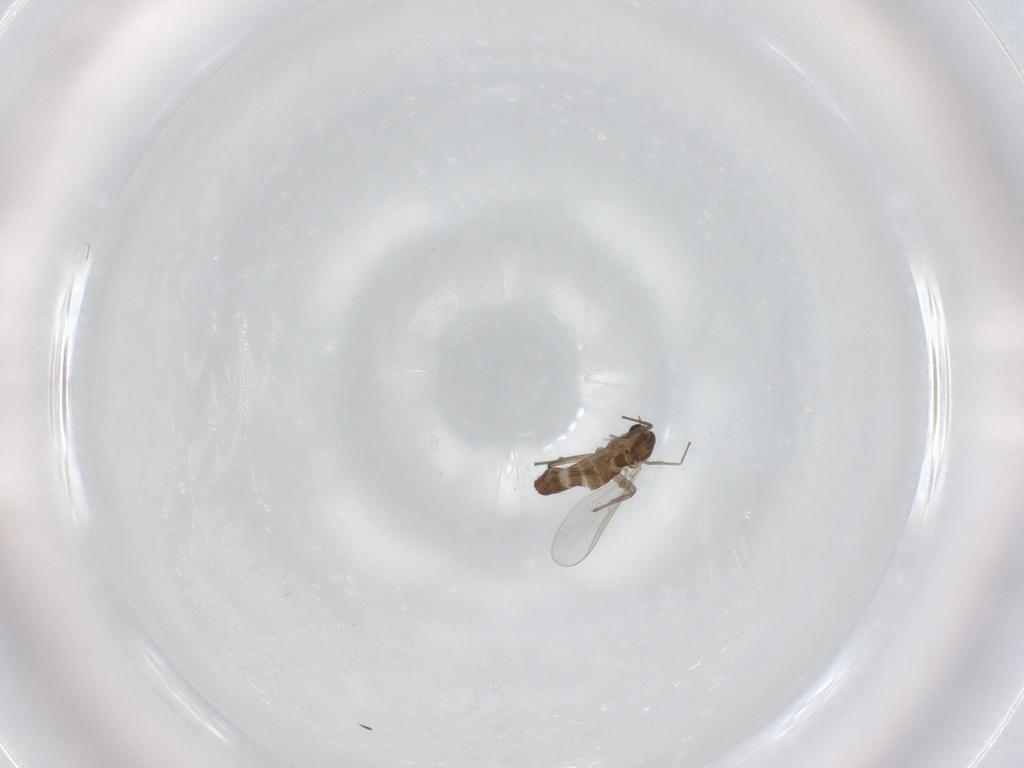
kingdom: Animalia
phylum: Arthropoda
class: Insecta
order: Diptera
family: Chironomidae
